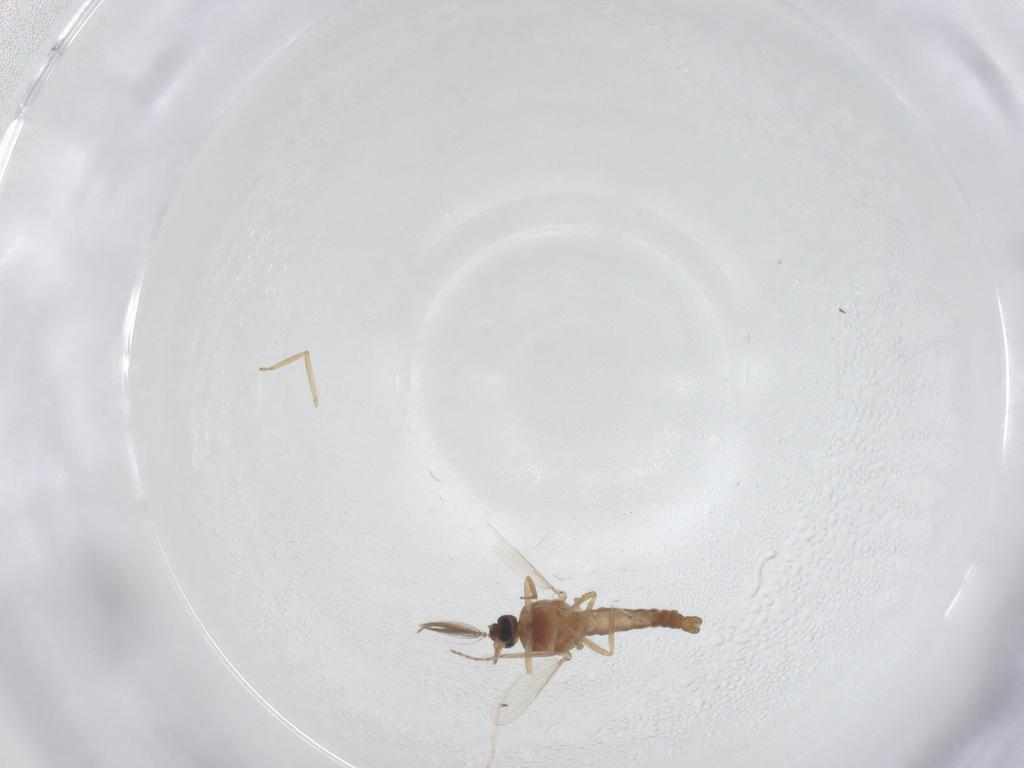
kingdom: Animalia
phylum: Arthropoda
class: Insecta
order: Diptera
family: Ceratopogonidae
